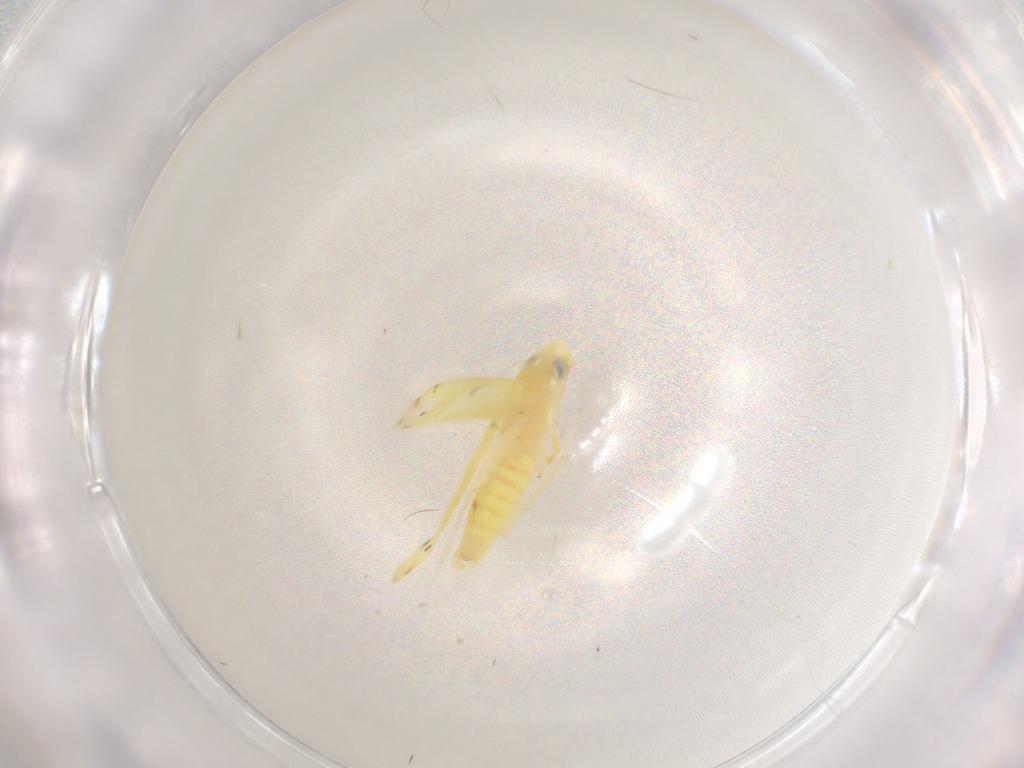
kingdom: Animalia
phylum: Arthropoda
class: Insecta
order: Hemiptera
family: Cicadellidae
